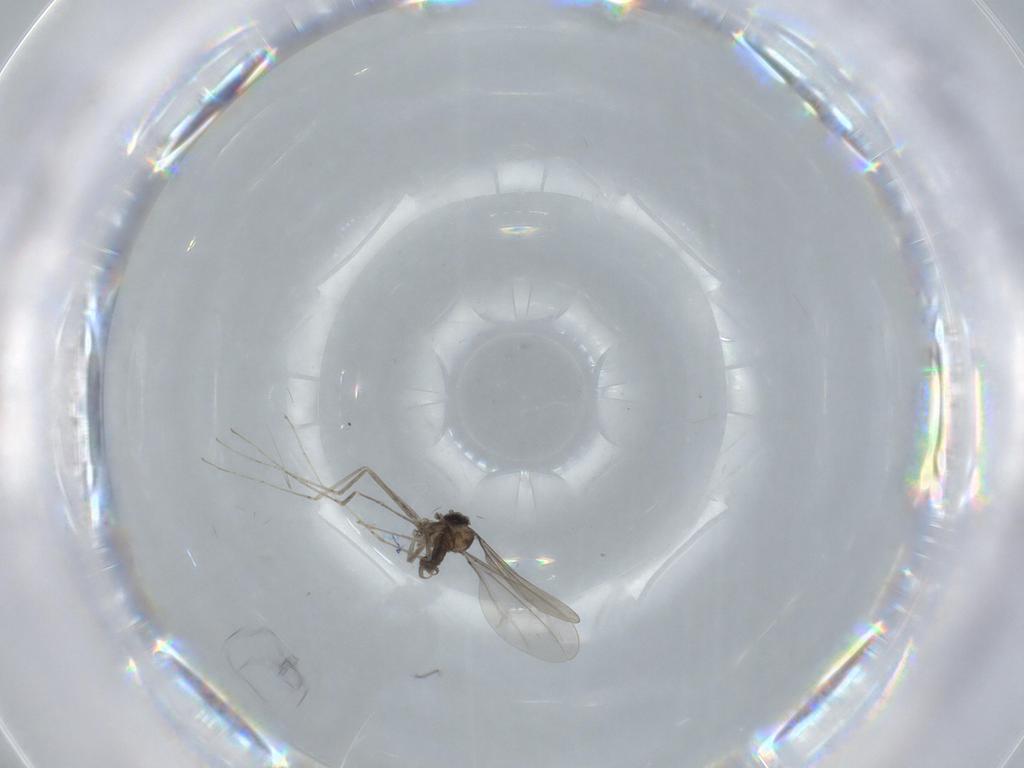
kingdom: Animalia
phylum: Arthropoda
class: Insecta
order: Diptera
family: Cecidomyiidae
